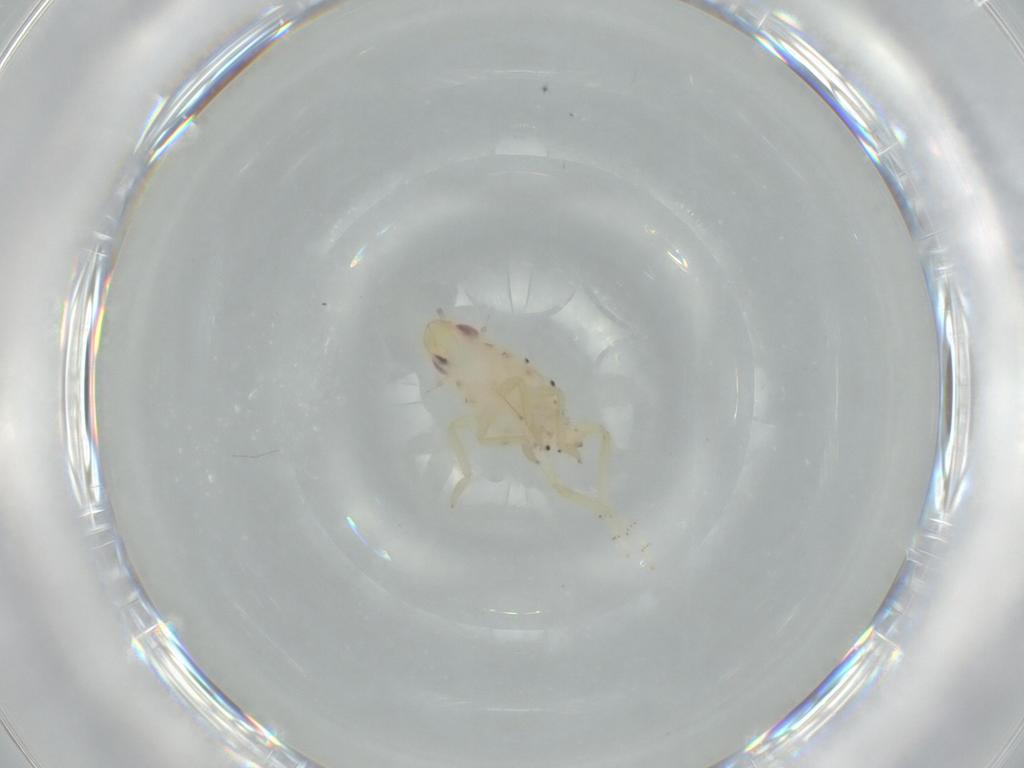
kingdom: Animalia
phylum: Arthropoda
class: Insecta
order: Hemiptera
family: Tropiduchidae
